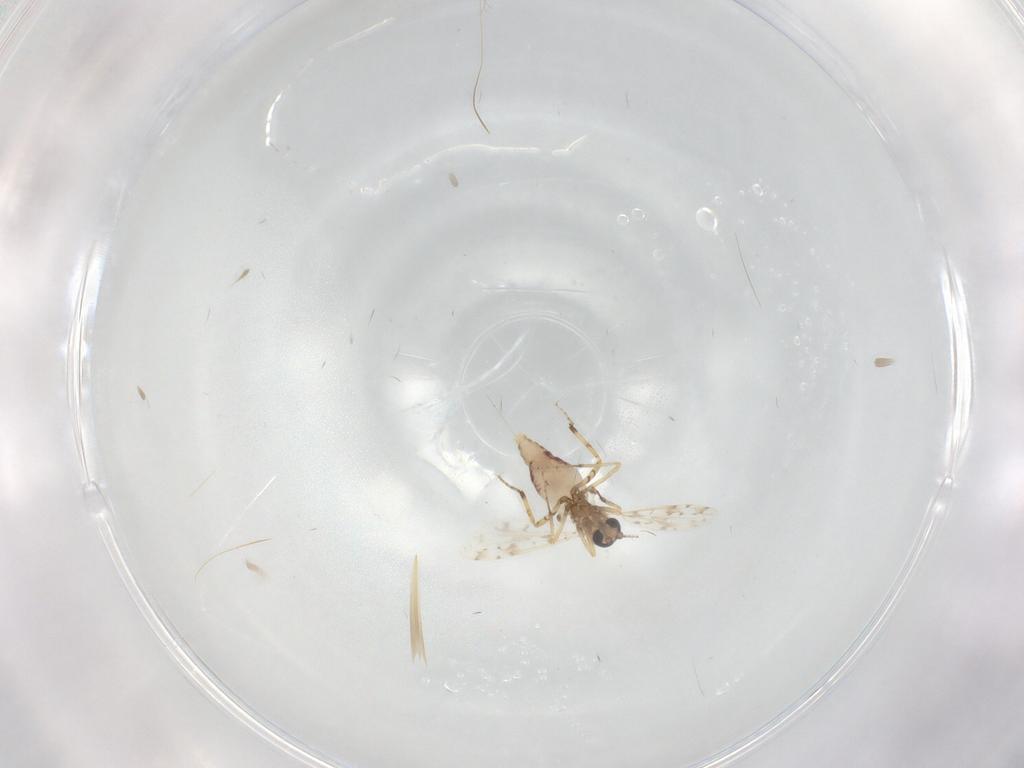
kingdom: Animalia
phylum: Arthropoda
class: Insecta
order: Diptera
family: Ceratopogonidae
